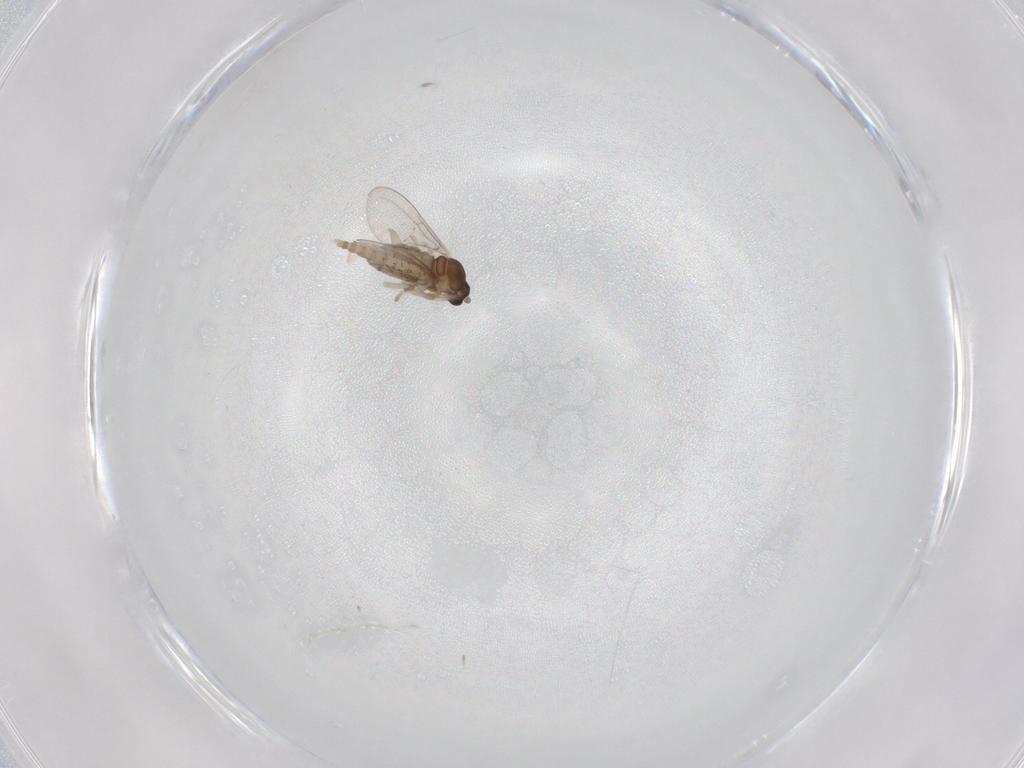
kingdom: Animalia
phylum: Arthropoda
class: Insecta
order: Diptera
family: Cecidomyiidae
